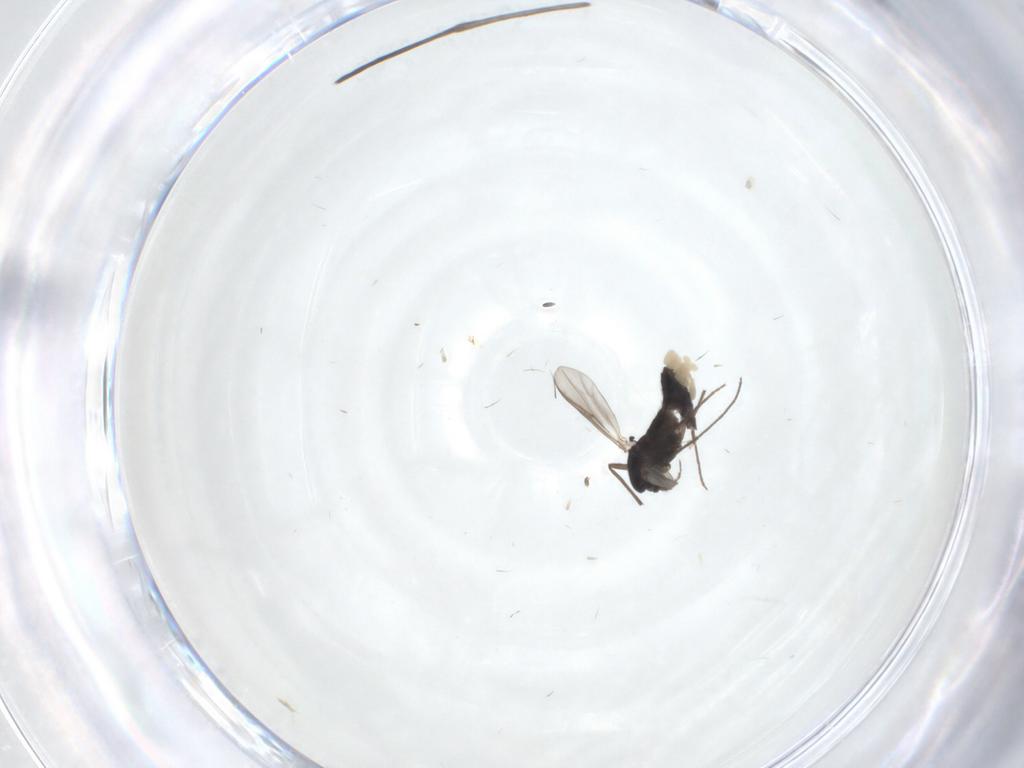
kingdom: Animalia
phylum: Arthropoda
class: Insecta
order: Diptera
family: Chironomidae
